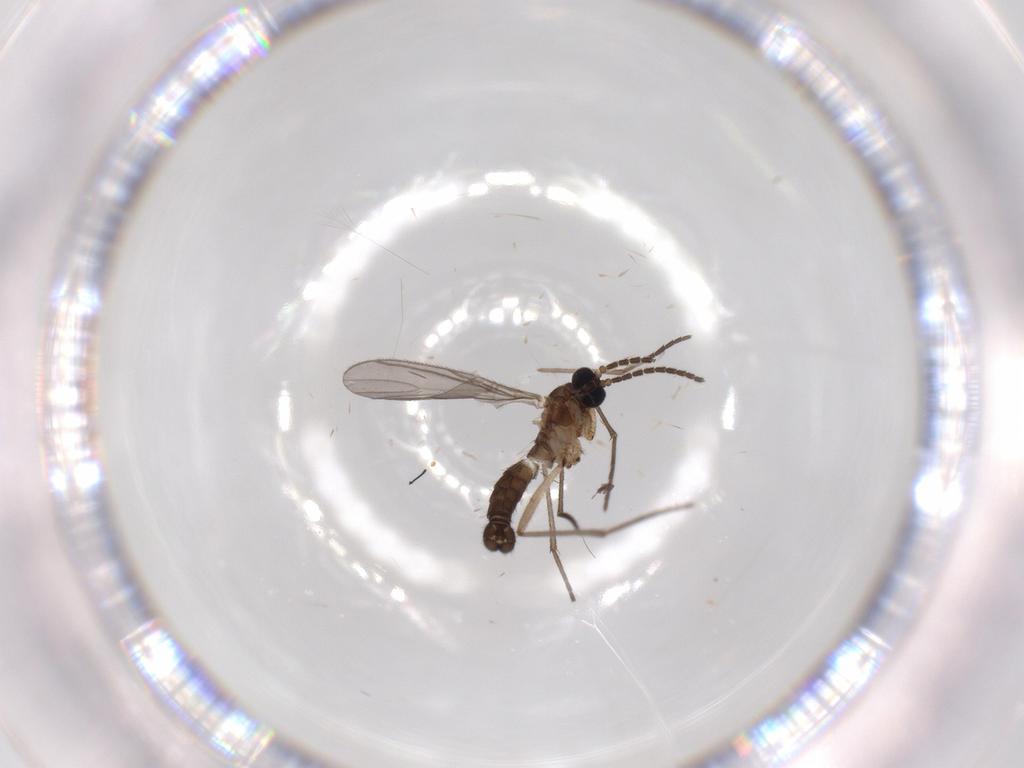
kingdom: Animalia
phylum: Arthropoda
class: Insecta
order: Diptera
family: Sciaridae
